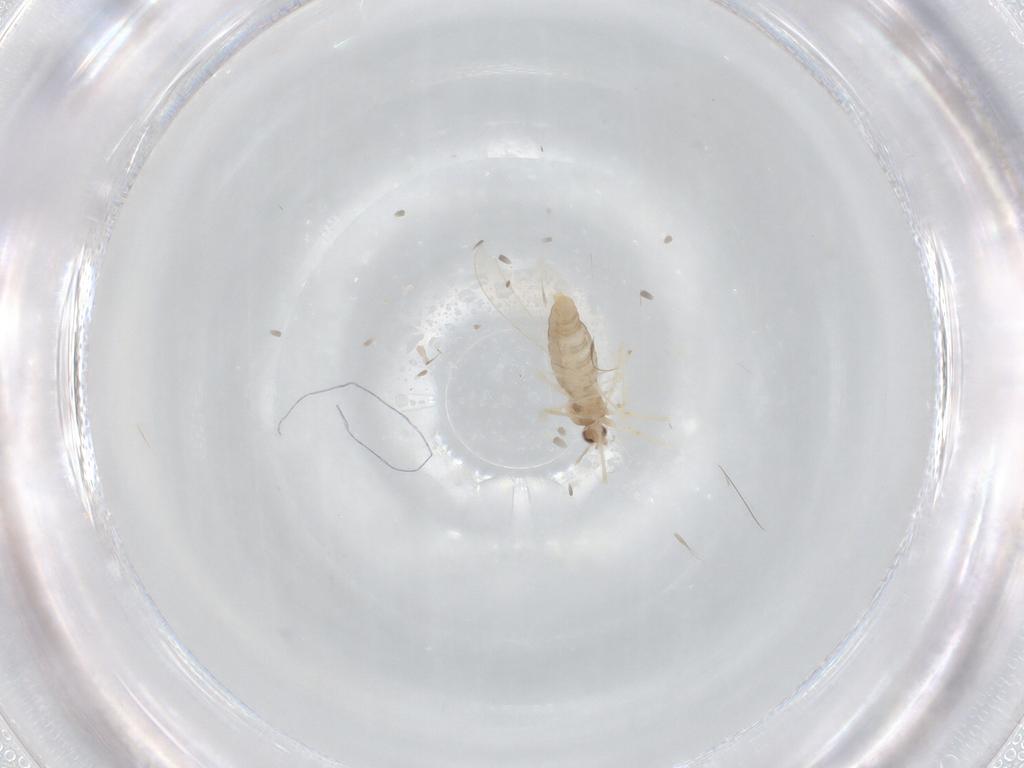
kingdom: Animalia
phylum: Arthropoda
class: Insecta
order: Diptera
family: Cecidomyiidae
